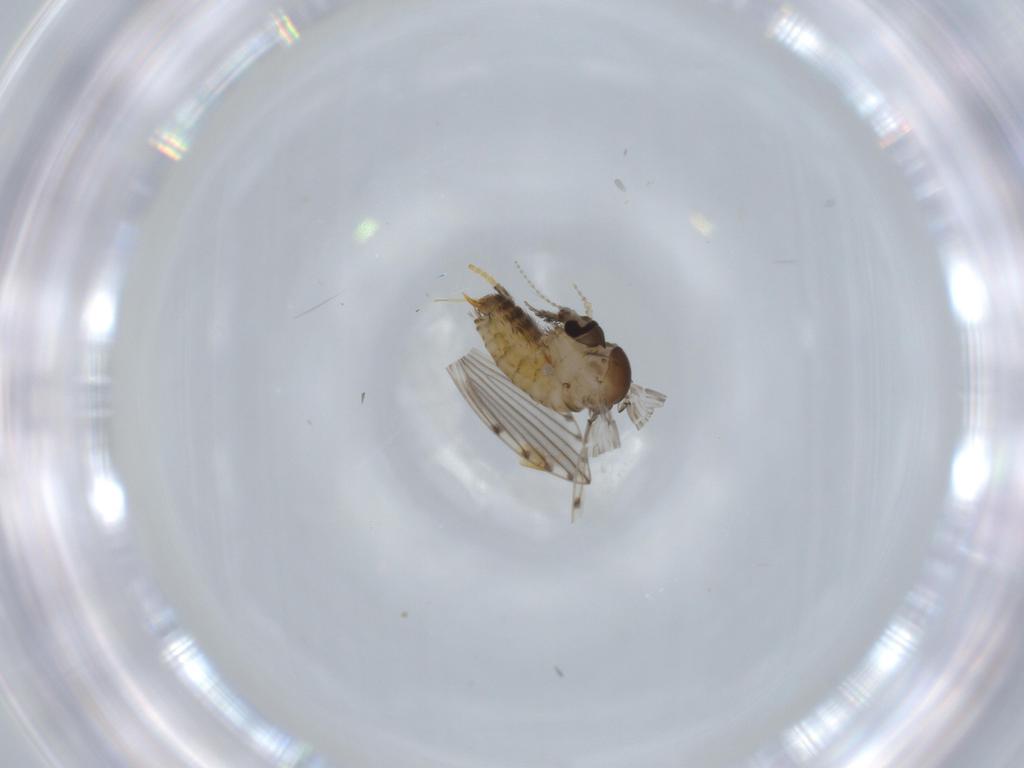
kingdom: Animalia
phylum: Arthropoda
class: Insecta
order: Diptera
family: Psychodidae
